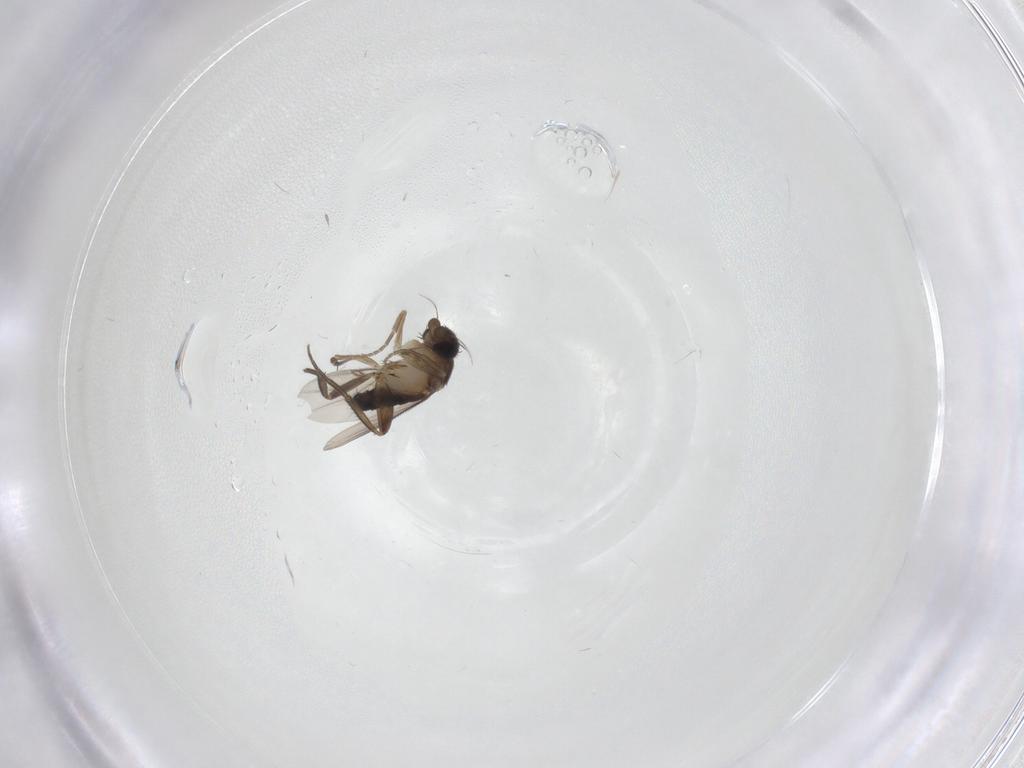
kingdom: Animalia
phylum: Arthropoda
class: Insecta
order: Diptera
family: Phoridae
